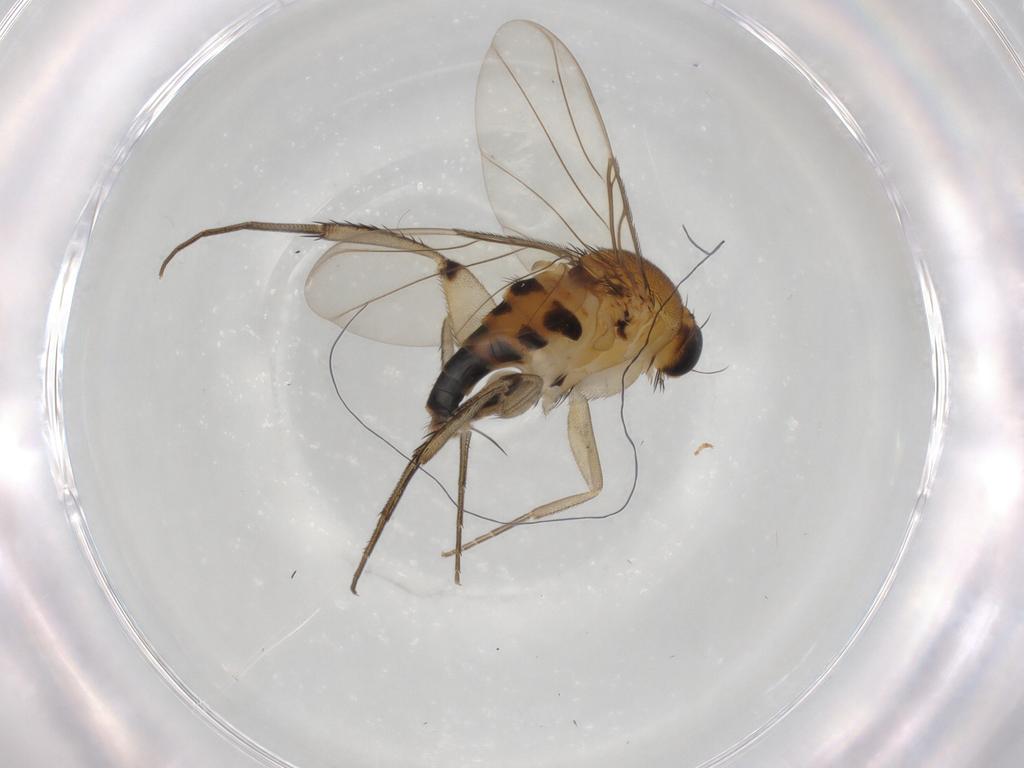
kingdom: Animalia
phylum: Arthropoda
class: Insecta
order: Diptera
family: Phoridae
